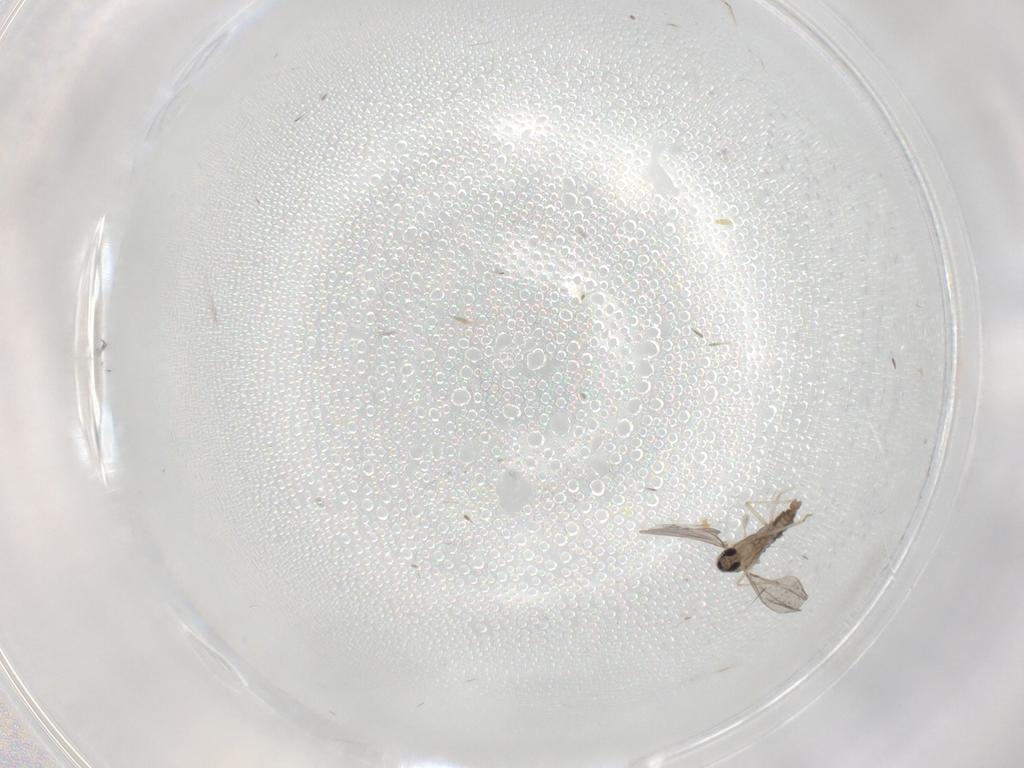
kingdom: Animalia
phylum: Arthropoda
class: Insecta
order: Diptera
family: Cecidomyiidae
